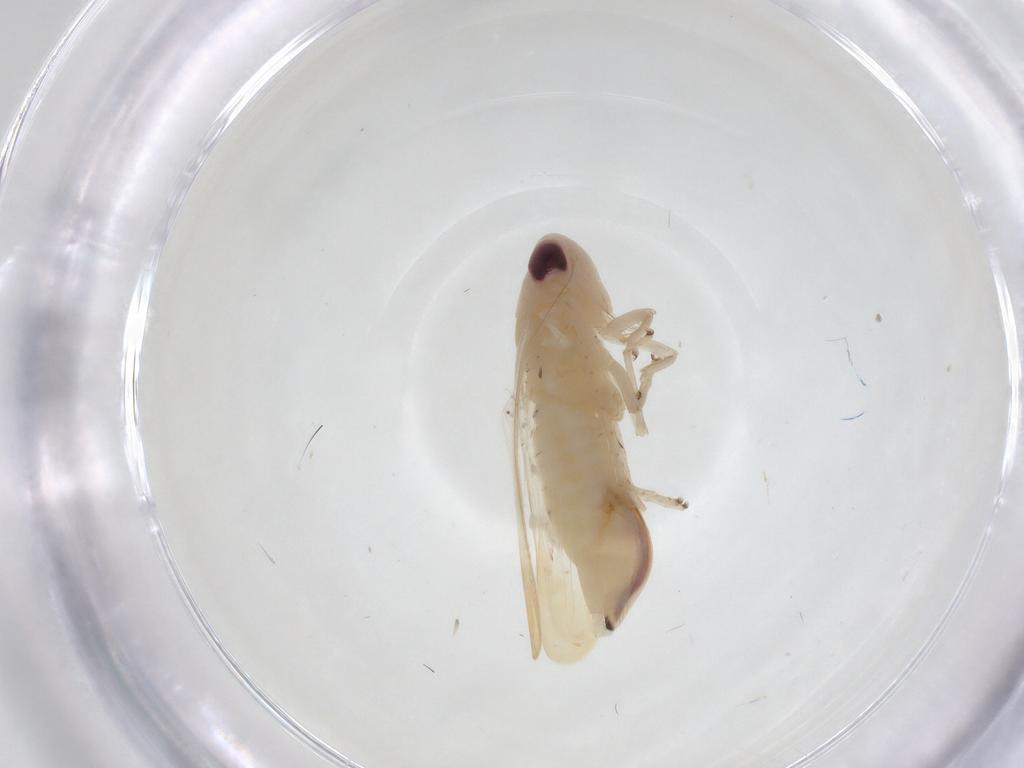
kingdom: Animalia
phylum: Arthropoda
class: Insecta
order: Hemiptera
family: Cicadellidae
